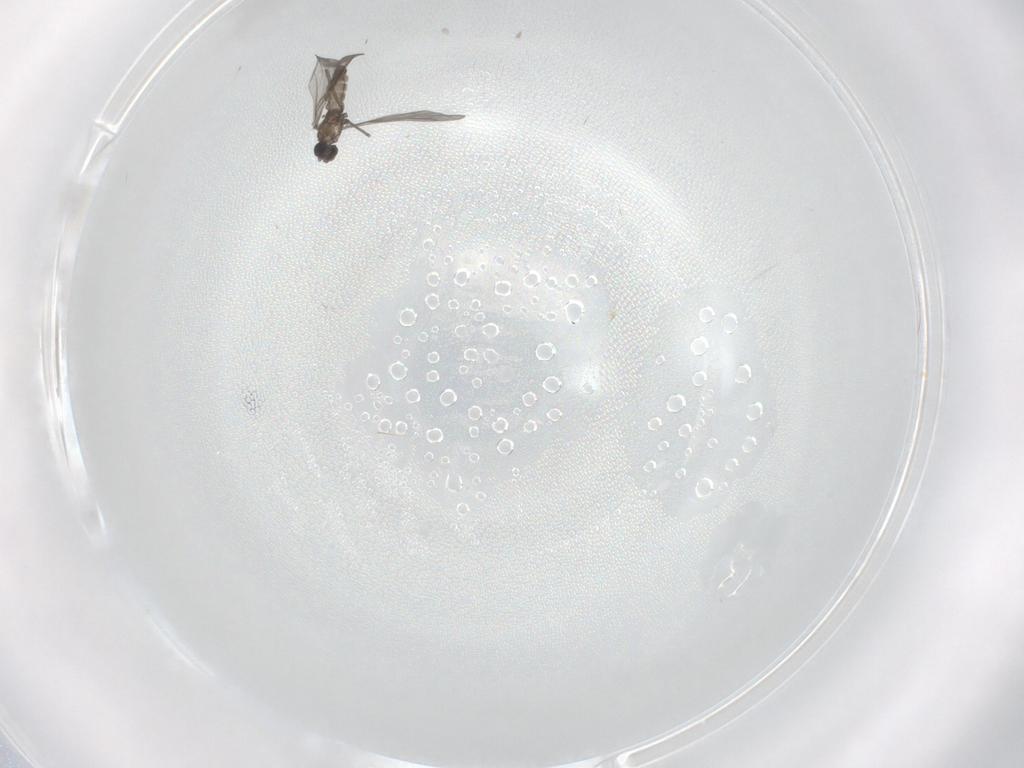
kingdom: Animalia
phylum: Arthropoda
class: Insecta
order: Diptera
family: Sciaridae
